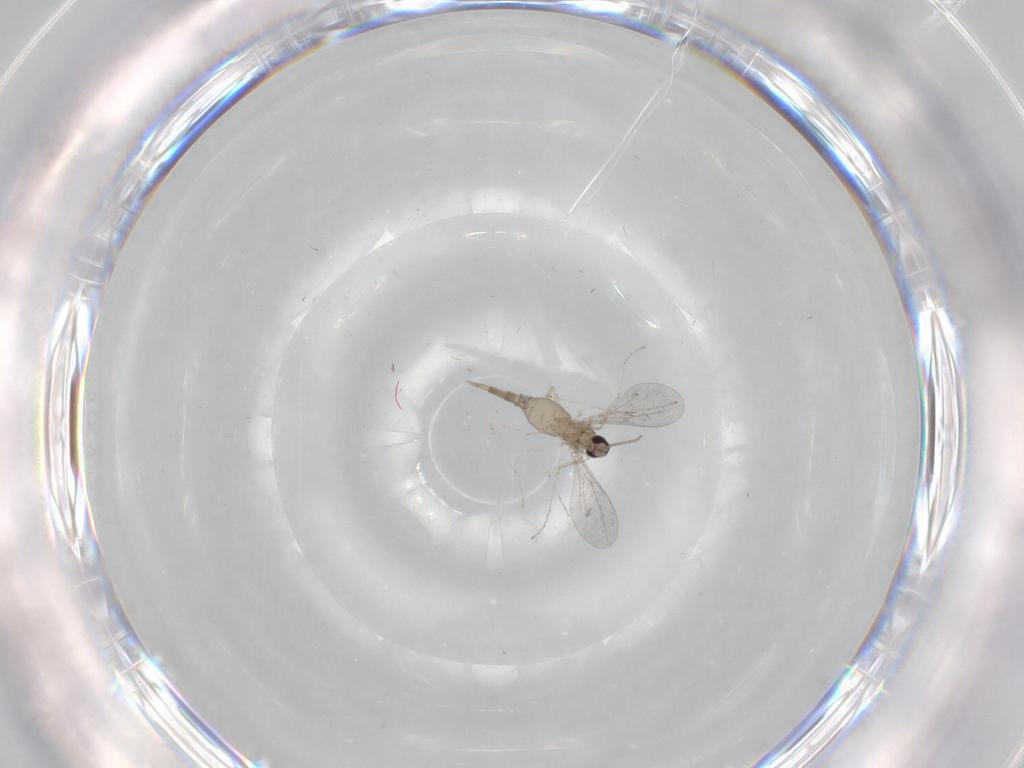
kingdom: Animalia
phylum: Arthropoda
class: Insecta
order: Diptera
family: Cecidomyiidae
